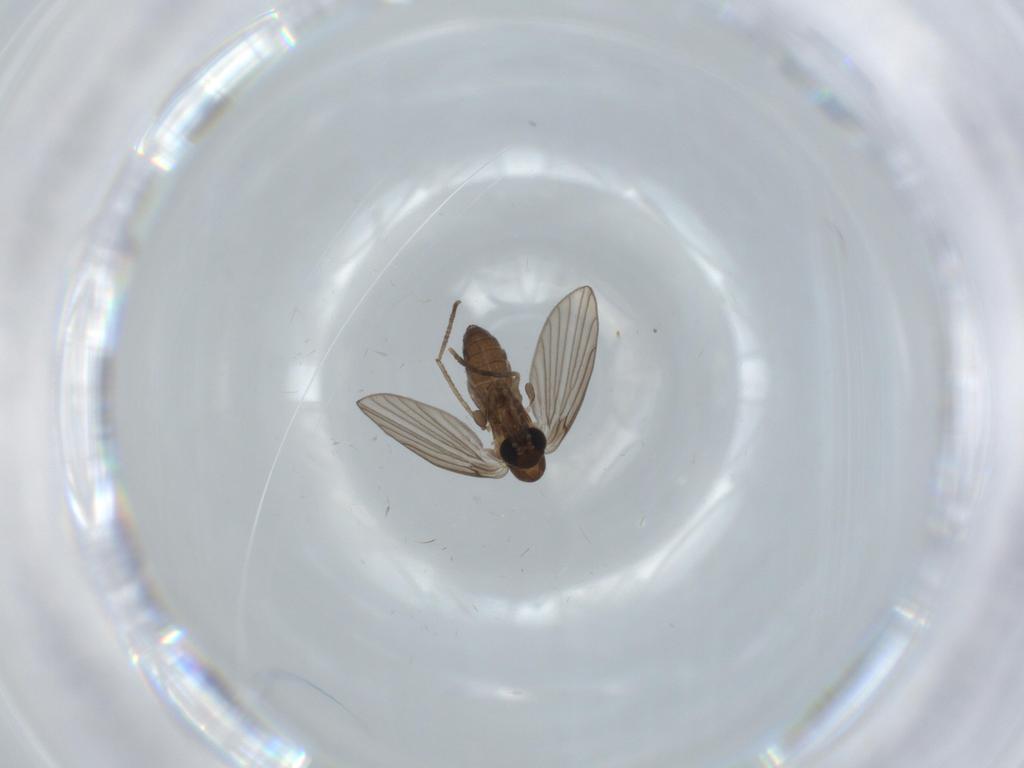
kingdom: Animalia
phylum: Arthropoda
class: Insecta
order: Diptera
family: Psychodidae
